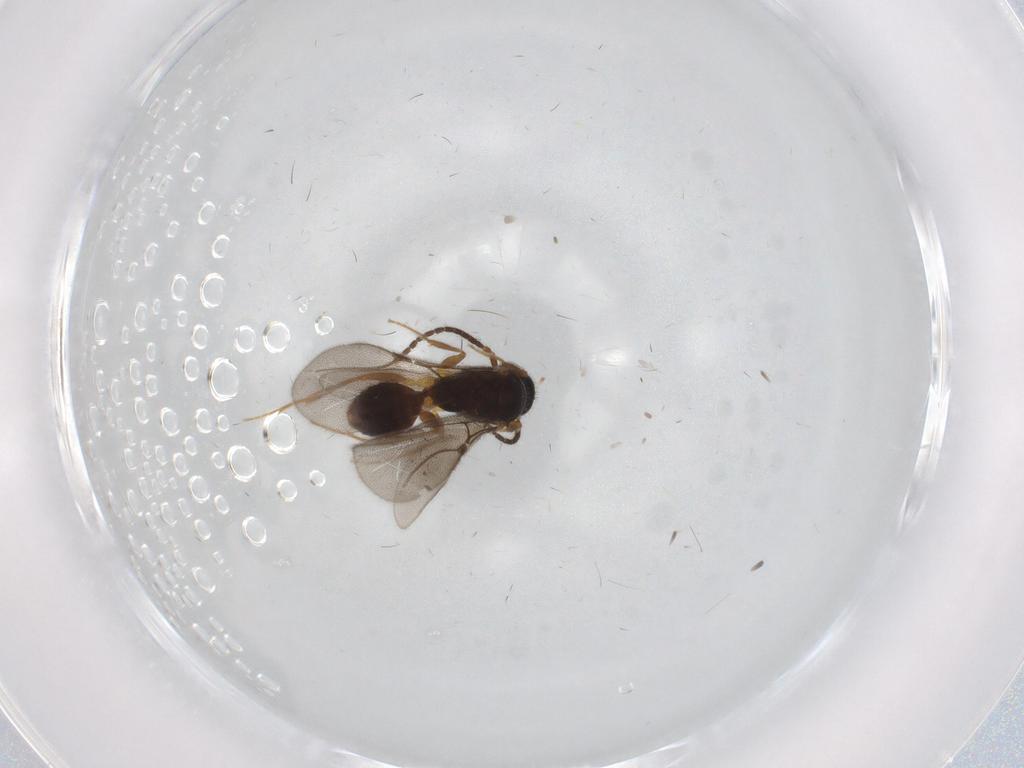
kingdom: Animalia
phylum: Arthropoda
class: Insecta
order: Hymenoptera
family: Bethylidae
